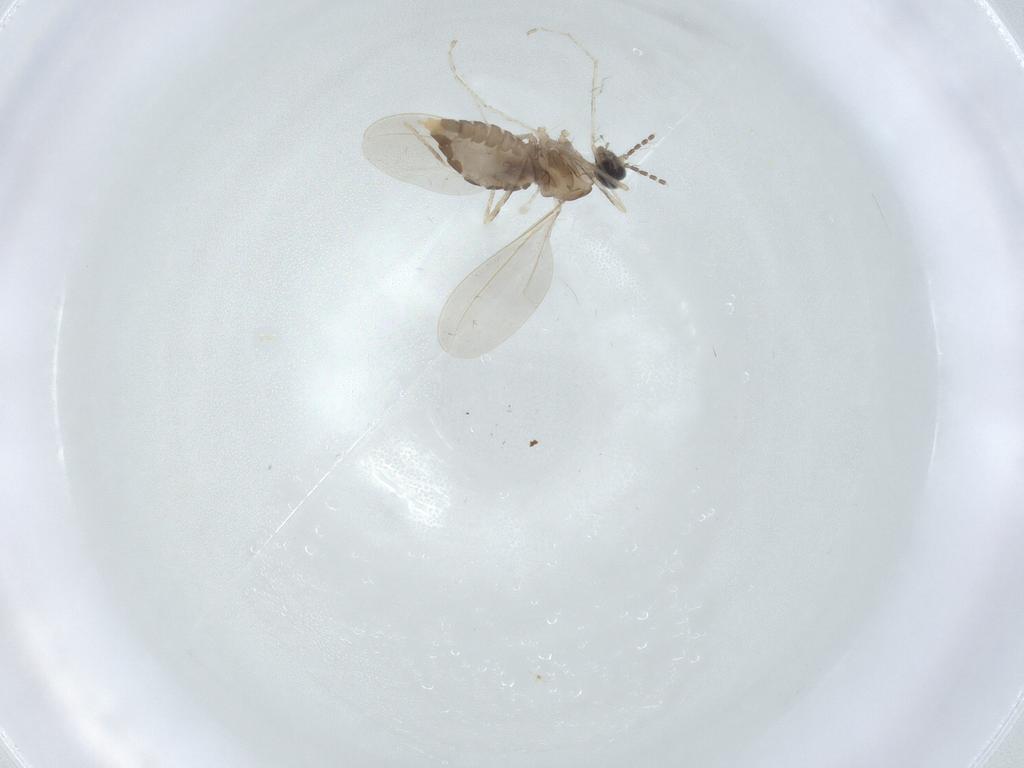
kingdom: Animalia
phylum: Arthropoda
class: Insecta
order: Diptera
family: Cecidomyiidae
